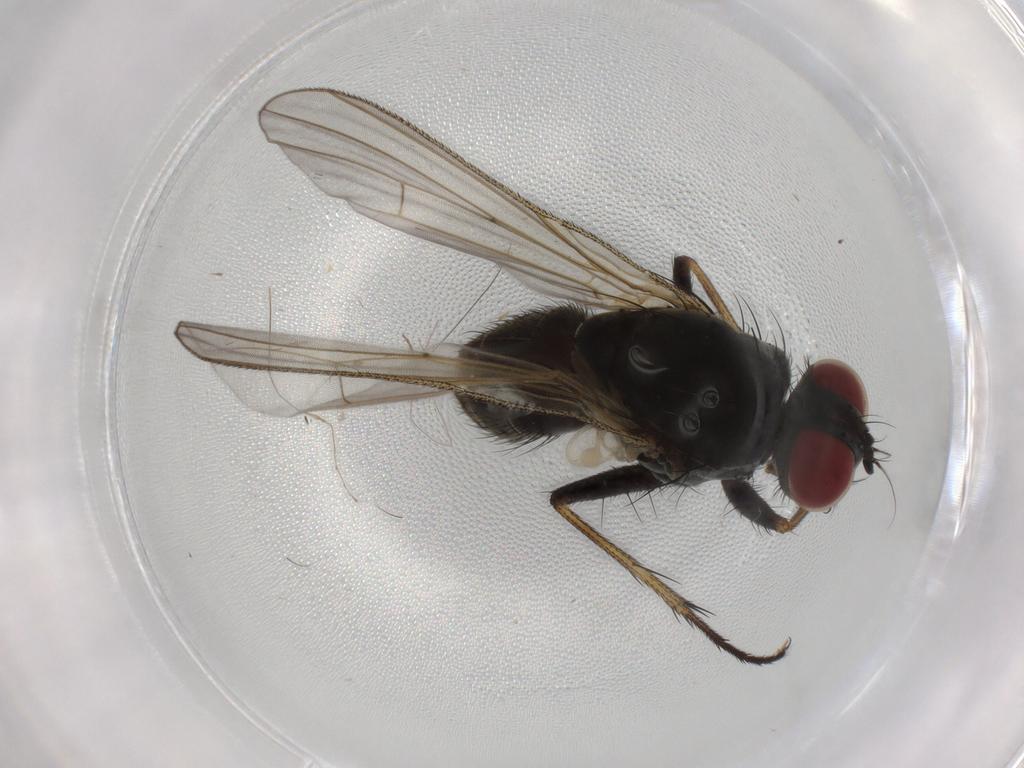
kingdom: Animalia
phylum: Arthropoda
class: Insecta
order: Diptera
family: Muscidae
